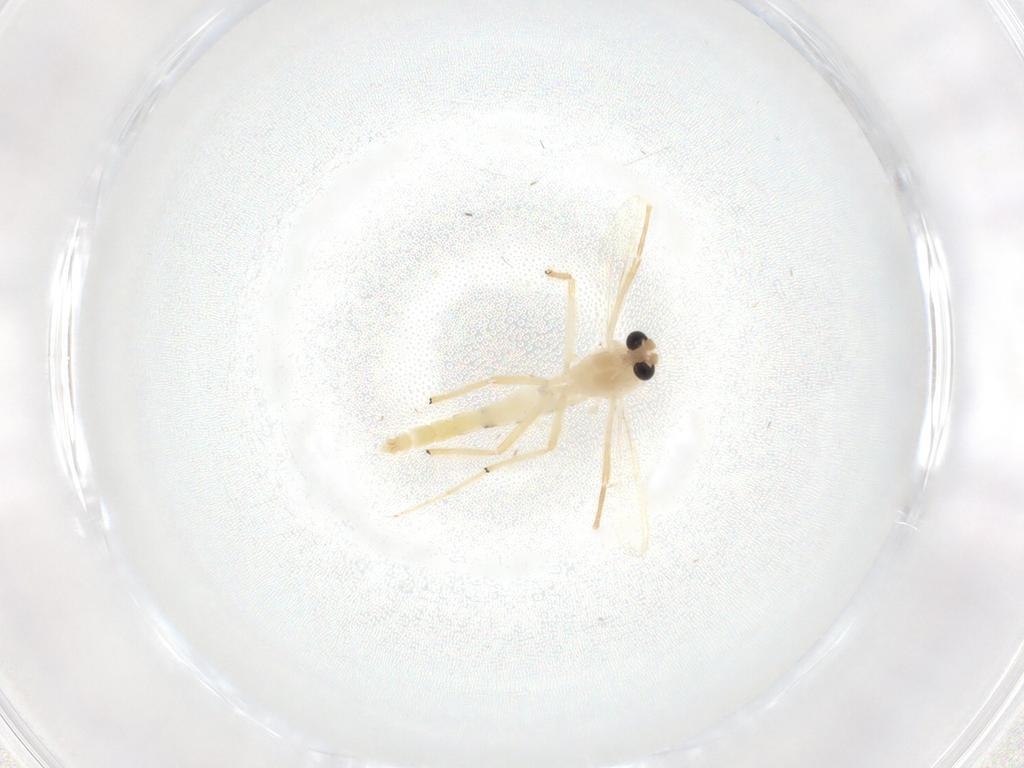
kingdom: Animalia
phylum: Arthropoda
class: Insecta
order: Diptera
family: Chironomidae
